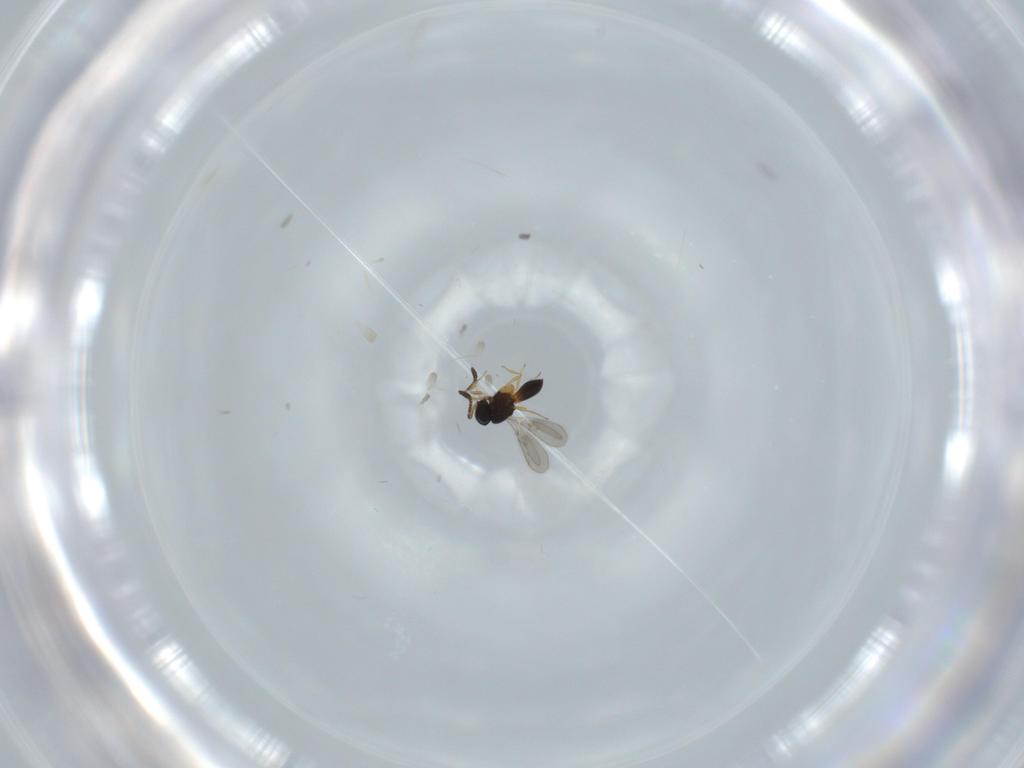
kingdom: Animalia
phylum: Arthropoda
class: Insecta
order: Hymenoptera
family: Scelionidae
